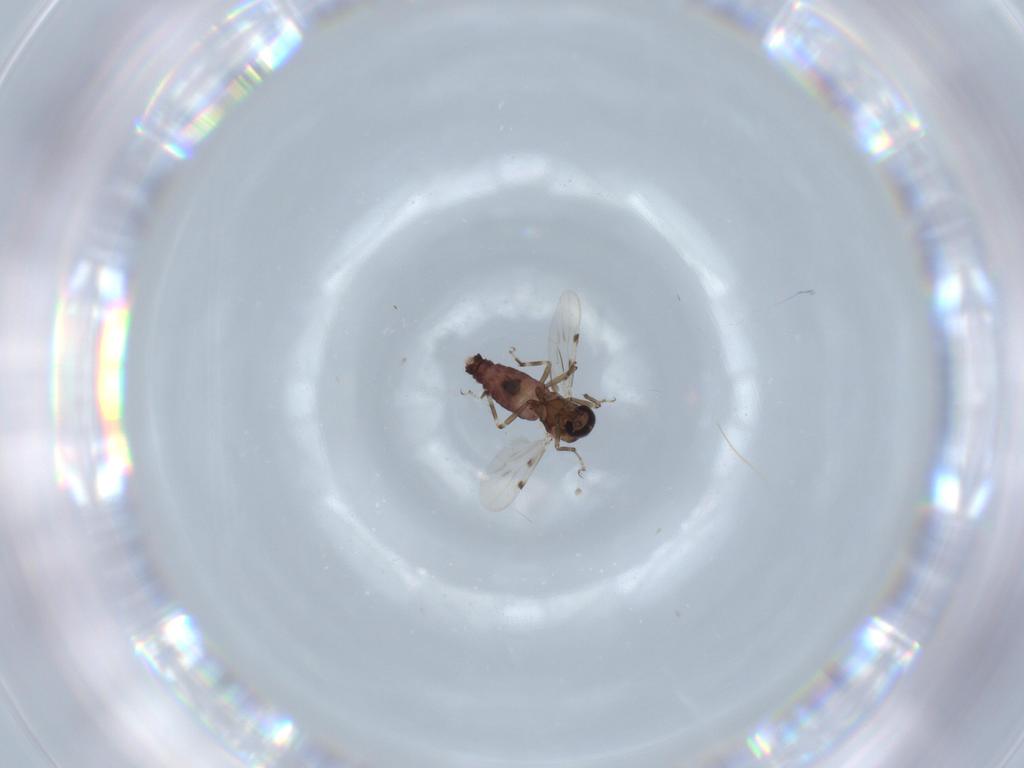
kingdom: Animalia
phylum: Arthropoda
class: Insecta
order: Diptera
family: Ceratopogonidae
